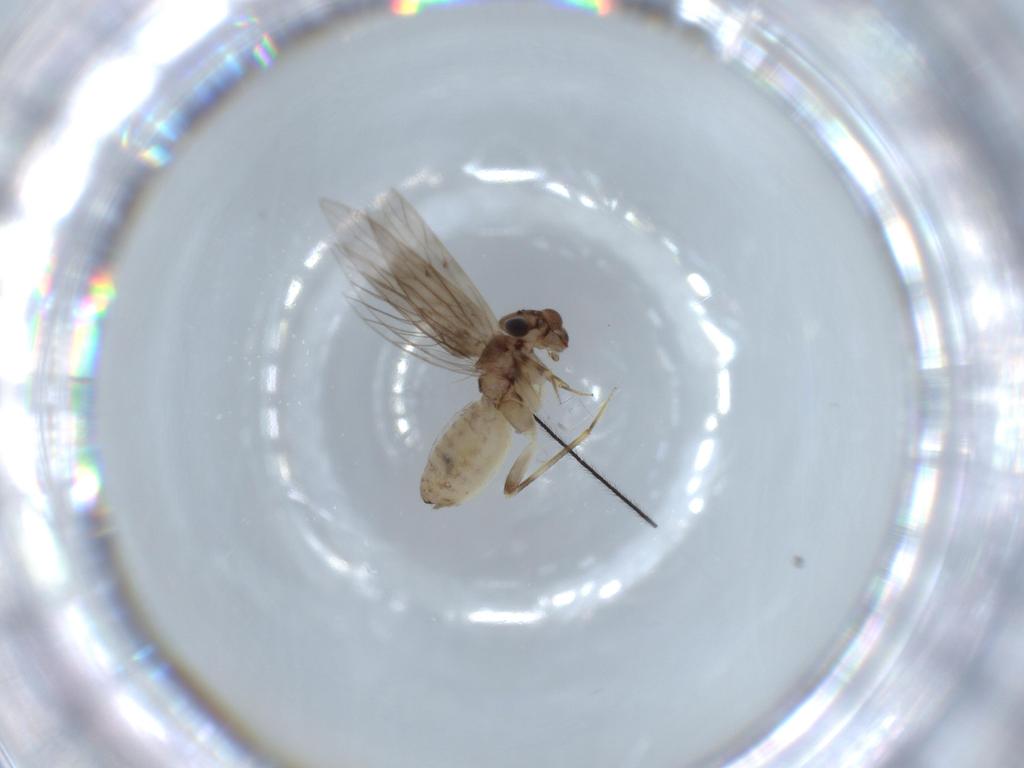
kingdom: Animalia
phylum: Arthropoda
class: Insecta
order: Psocodea
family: Lepidopsocidae
